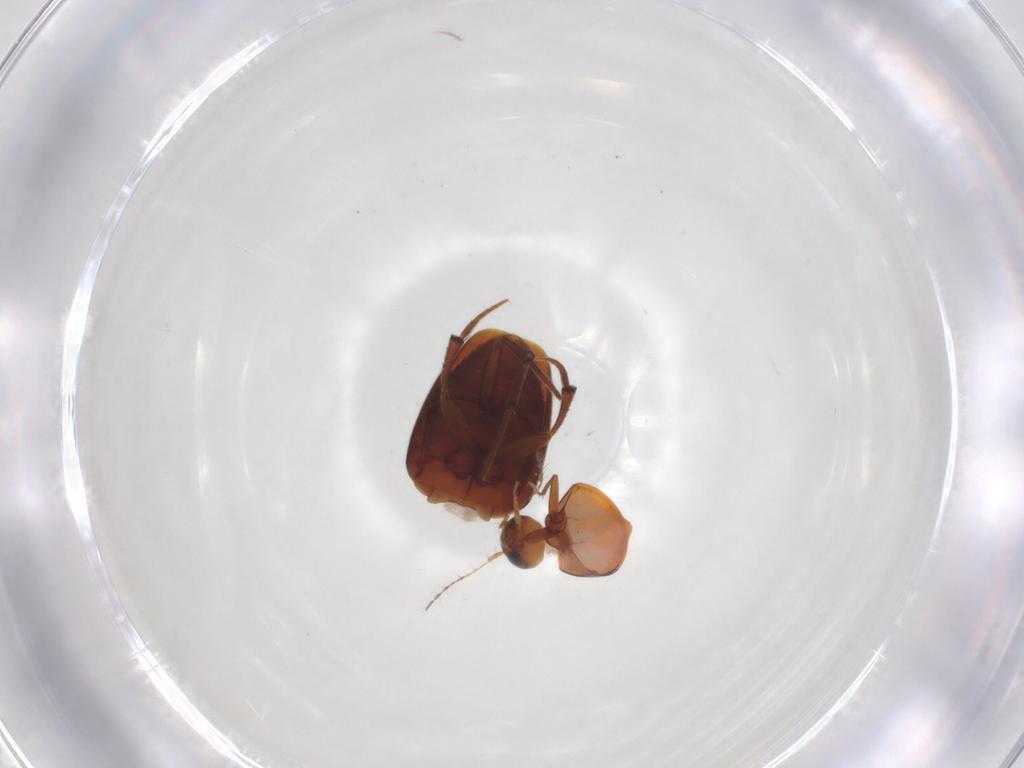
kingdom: Animalia
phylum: Arthropoda
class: Insecta
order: Coleoptera
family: Leiodidae
